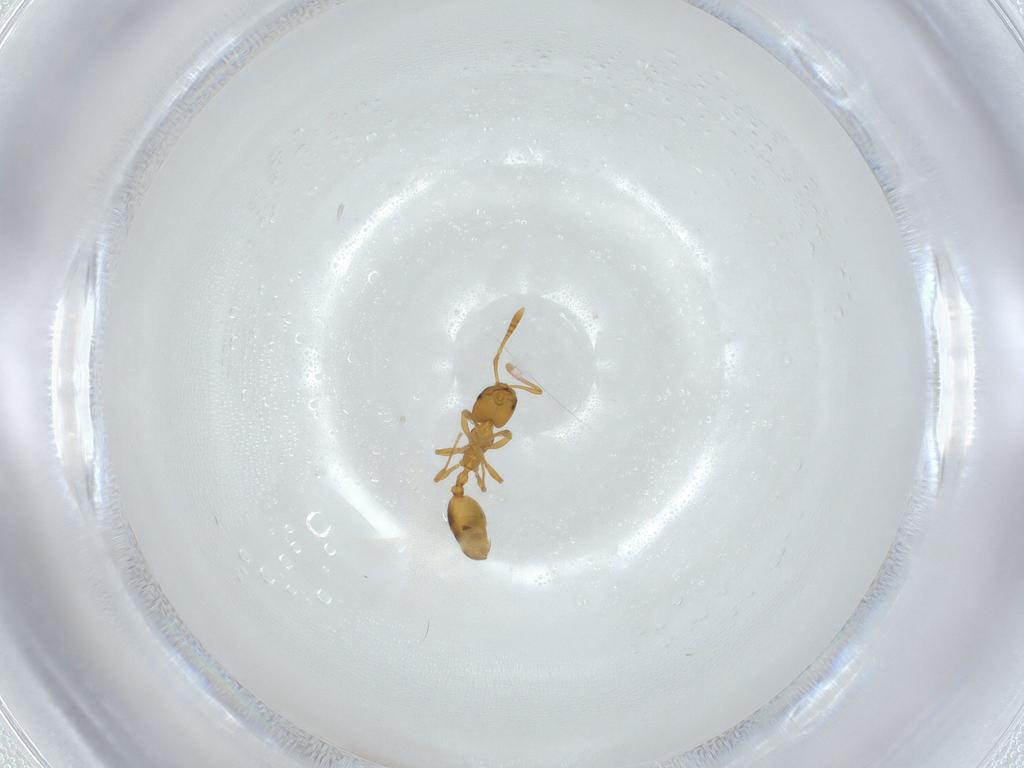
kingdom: Animalia
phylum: Arthropoda
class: Insecta
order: Hymenoptera
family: Formicidae
